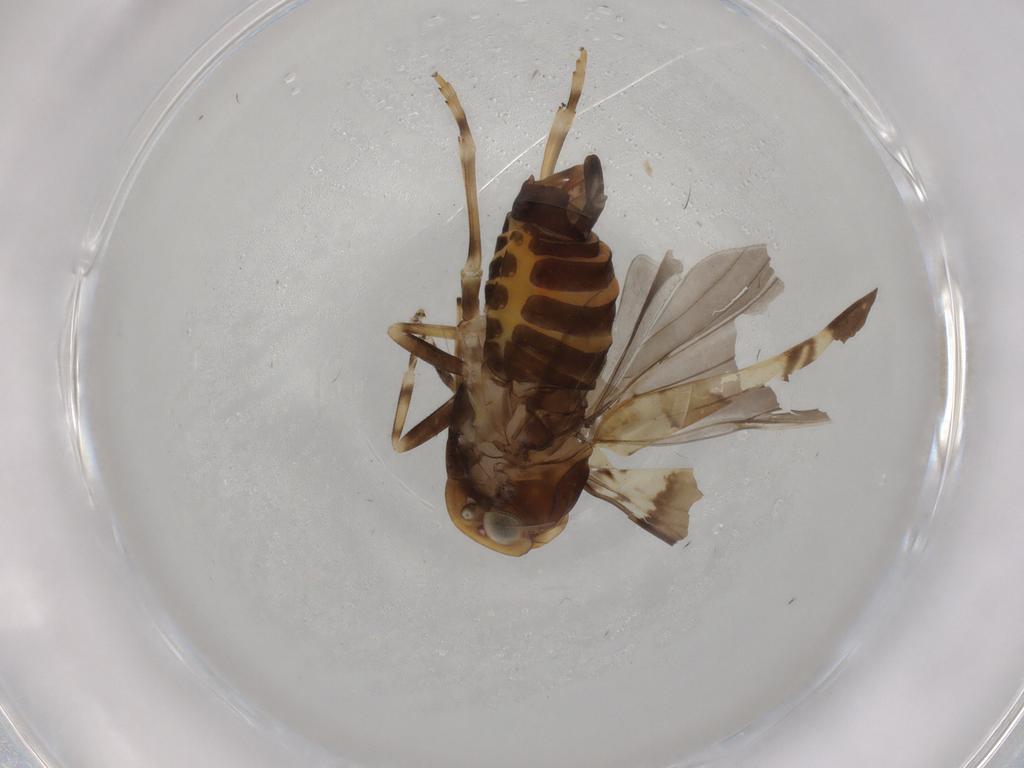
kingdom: Animalia
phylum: Arthropoda
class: Insecta
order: Hemiptera
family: Cixiidae
